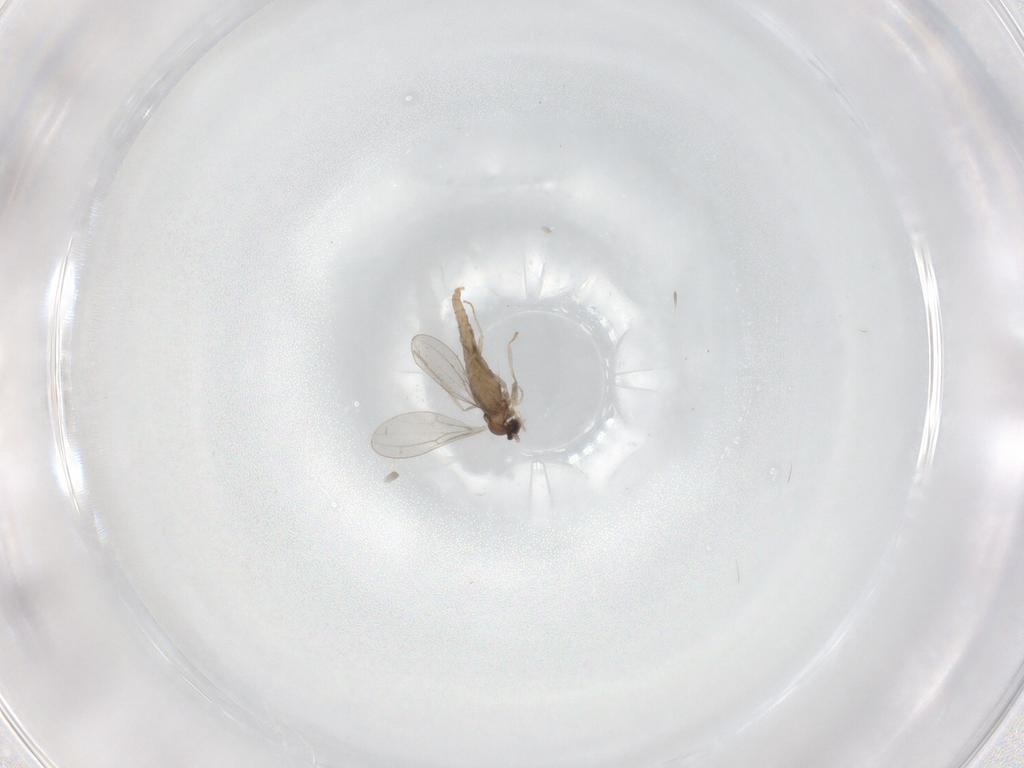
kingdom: Animalia
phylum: Arthropoda
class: Insecta
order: Diptera
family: Cecidomyiidae
